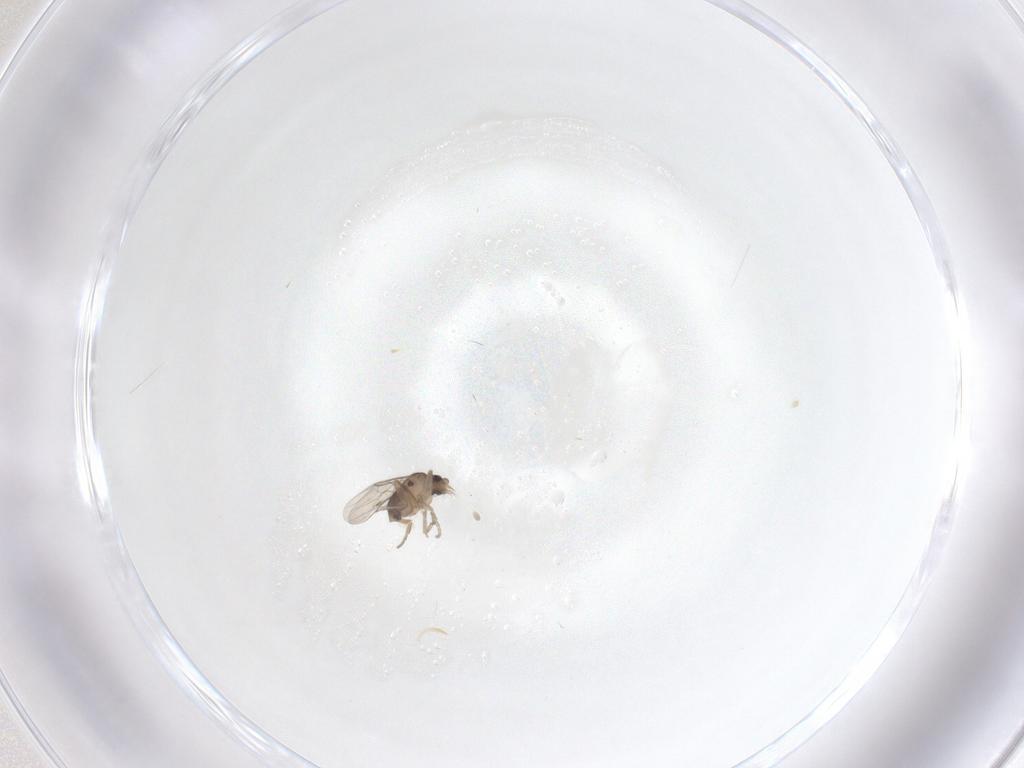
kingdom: Animalia
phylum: Arthropoda
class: Insecta
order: Diptera
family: Phoridae
